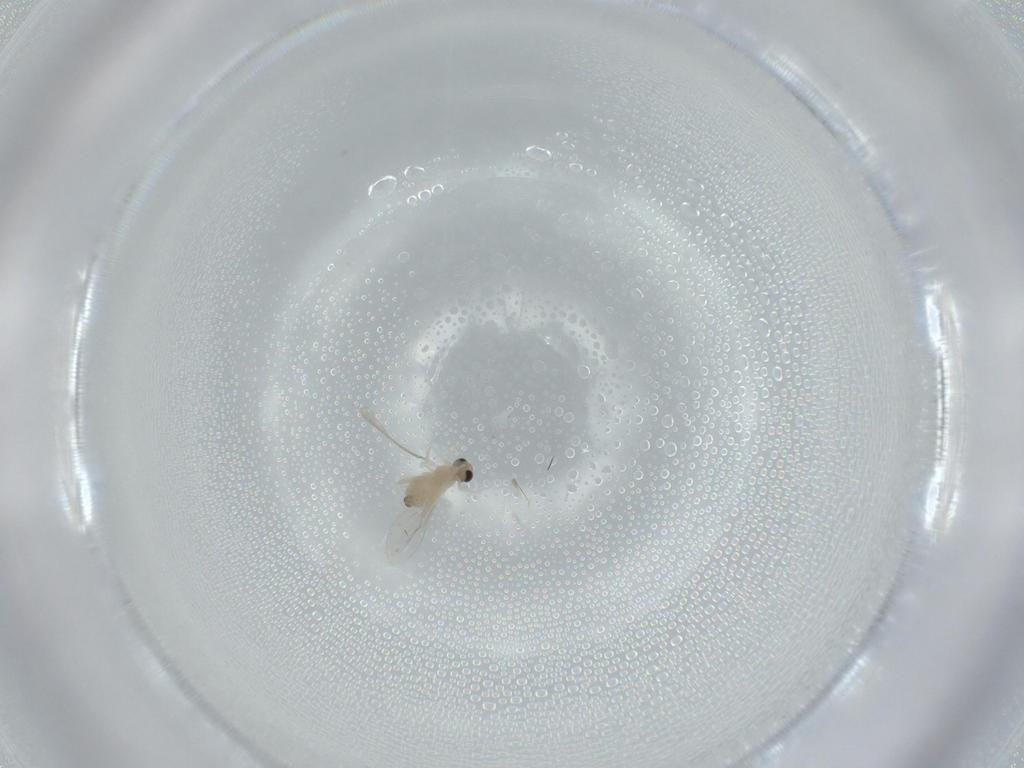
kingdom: Animalia
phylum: Arthropoda
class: Insecta
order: Diptera
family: Cecidomyiidae
